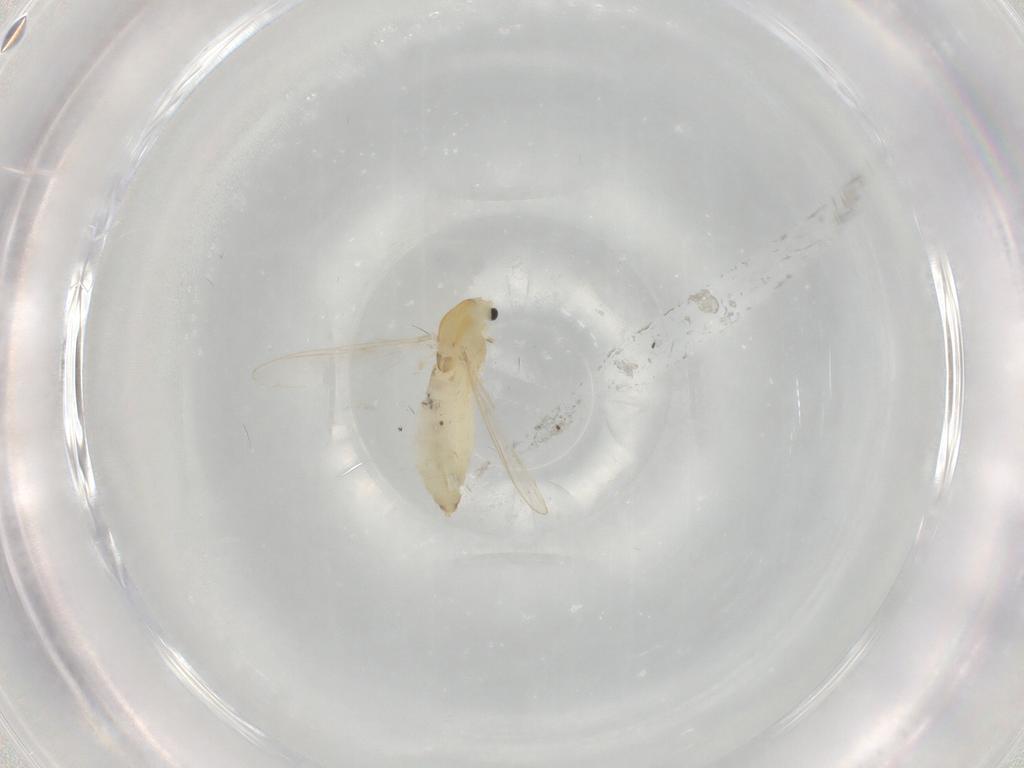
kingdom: Animalia
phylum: Arthropoda
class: Insecta
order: Diptera
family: Chironomidae
